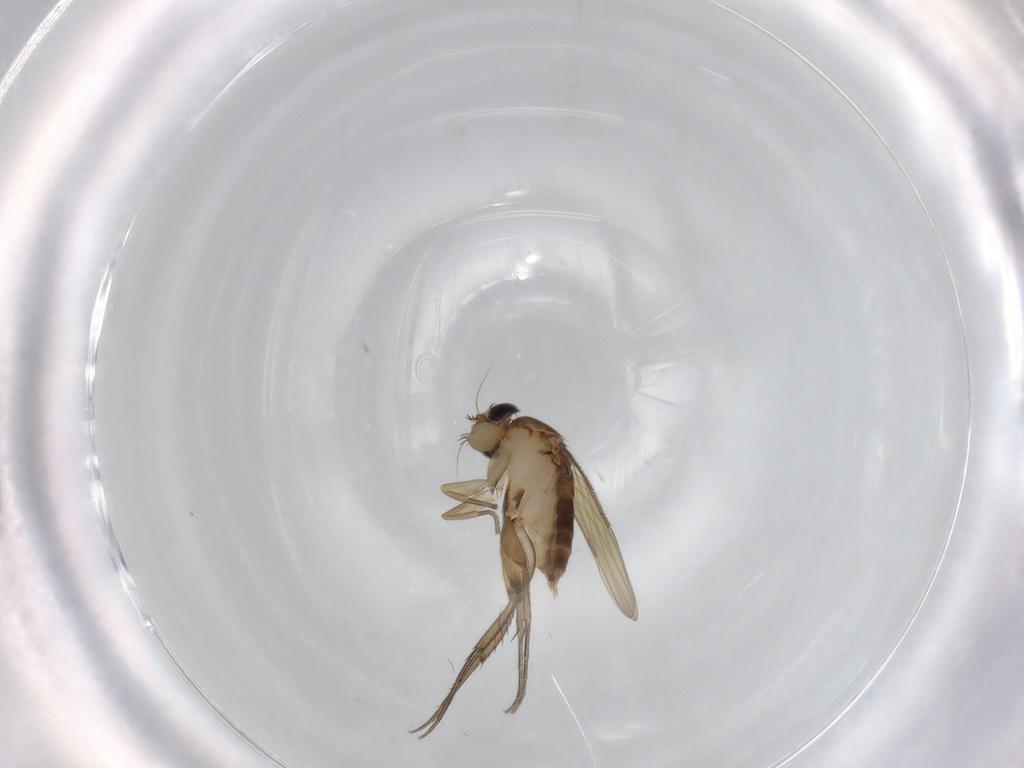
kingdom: Animalia
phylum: Arthropoda
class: Insecta
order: Diptera
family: Phoridae
